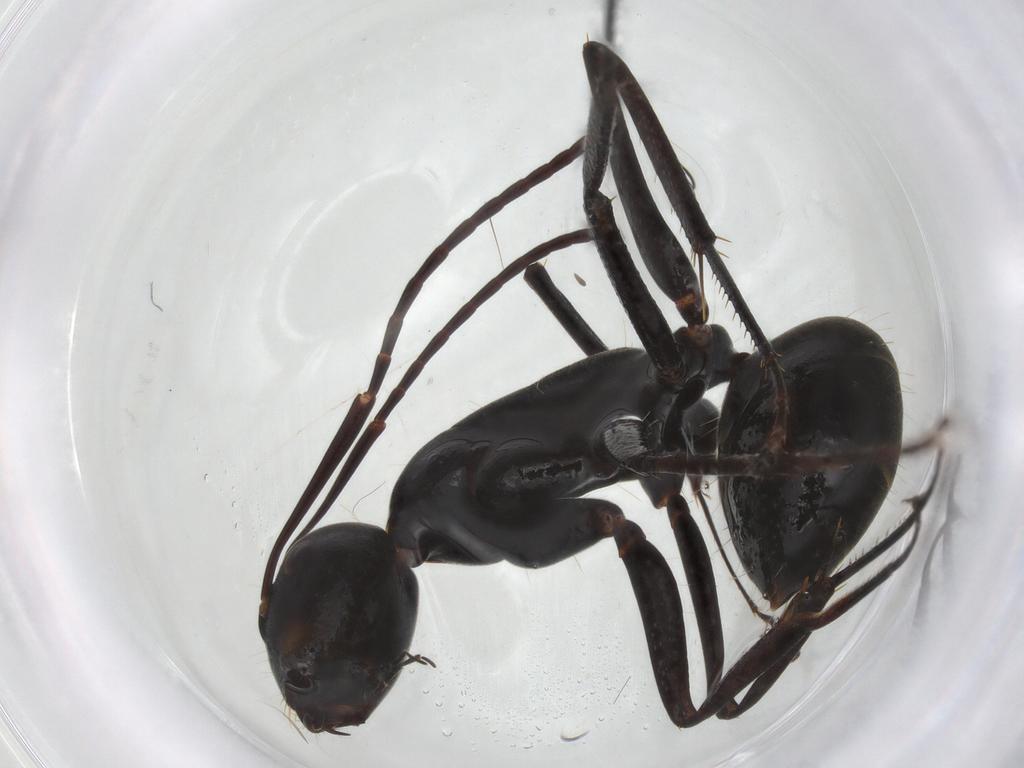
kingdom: Animalia
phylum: Arthropoda
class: Insecta
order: Hymenoptera
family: Formicidae
